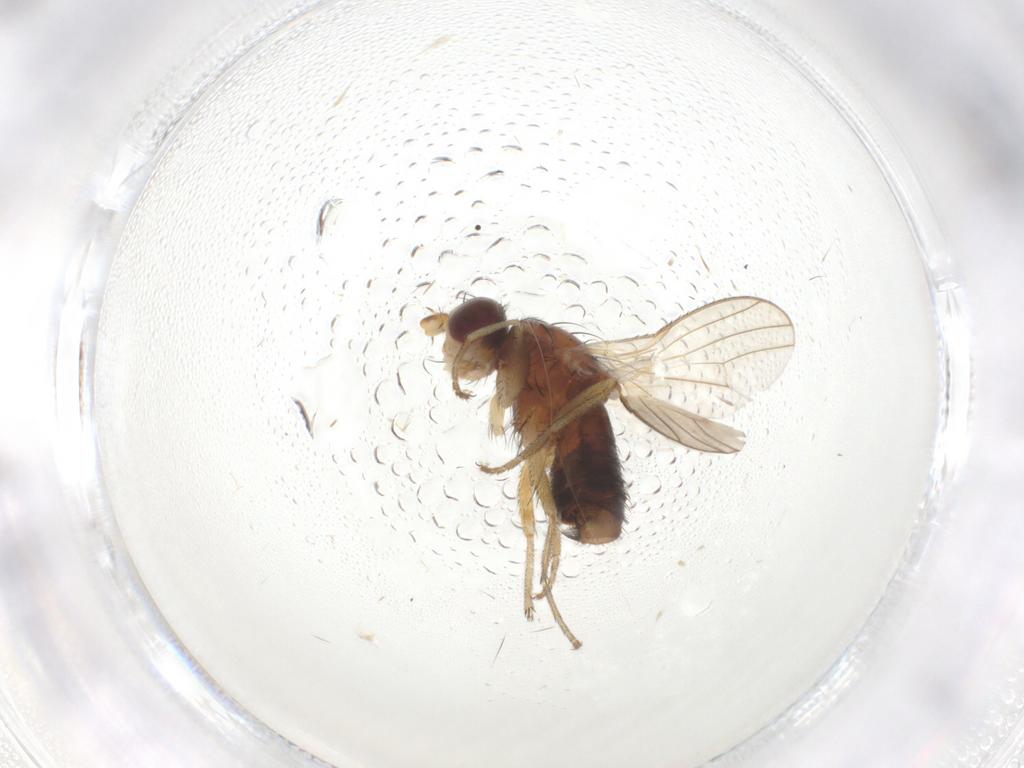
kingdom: Animalia
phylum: Arthropoda
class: Insecta
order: Diptera
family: Heleomyzidae
